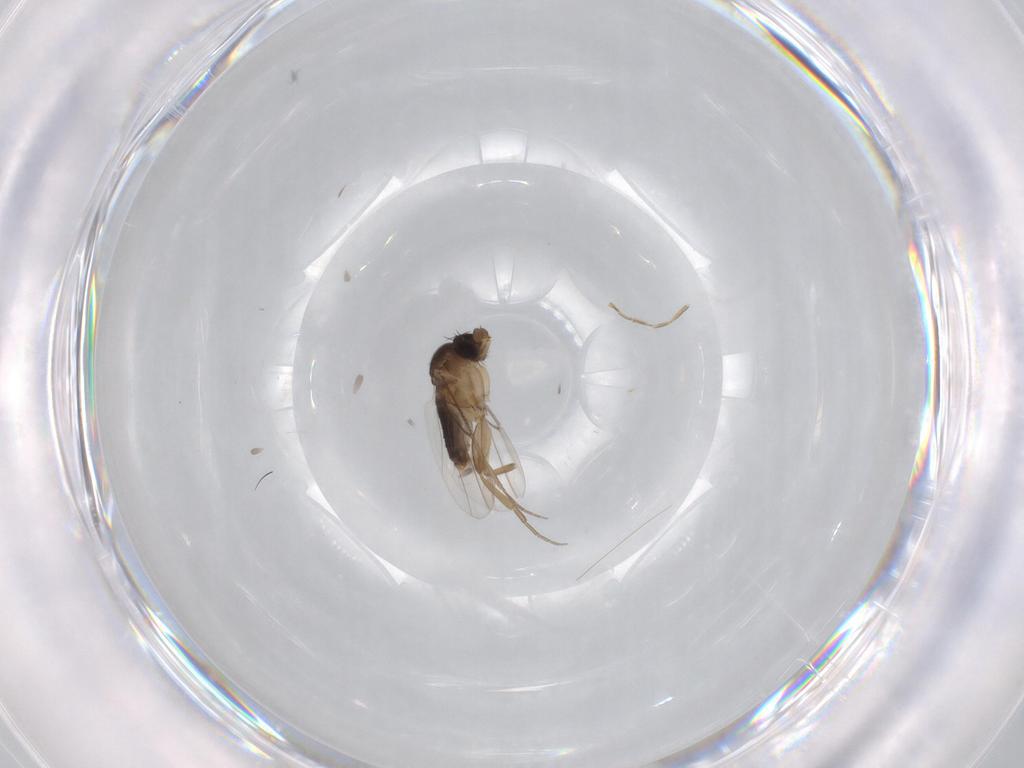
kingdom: Animalia
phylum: Arthropoda
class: Insecta
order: Diptera
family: Phoridae
